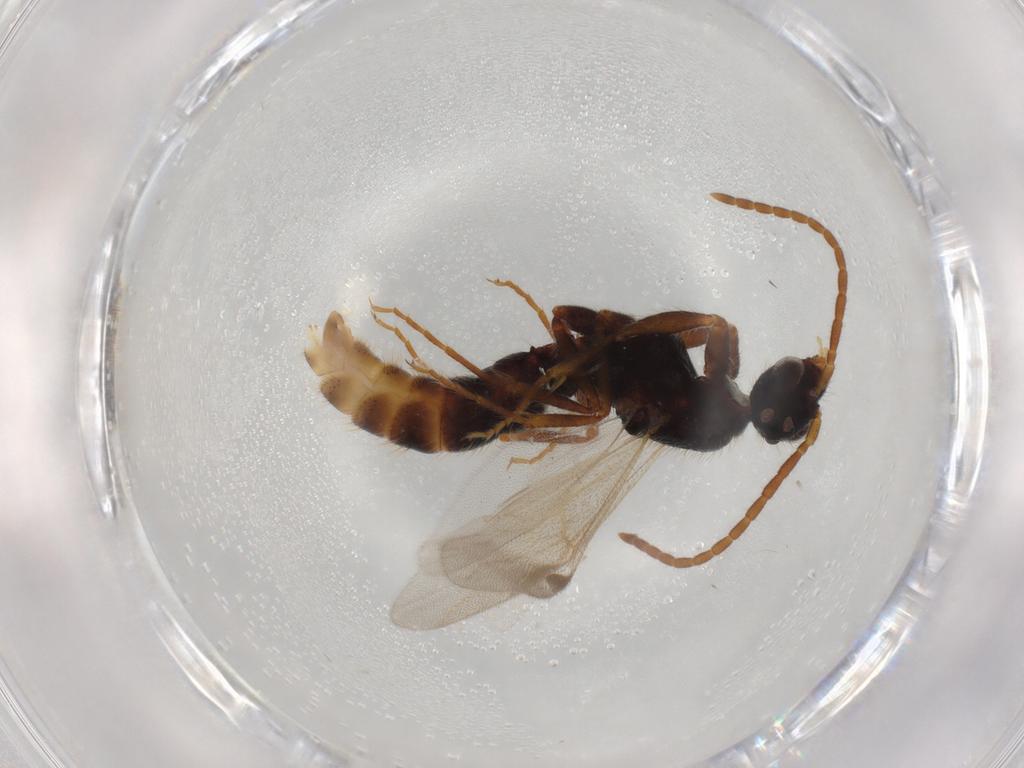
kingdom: Animalia
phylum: Arthropoda
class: Insecta
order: Hymenoptera
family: Formicidae
